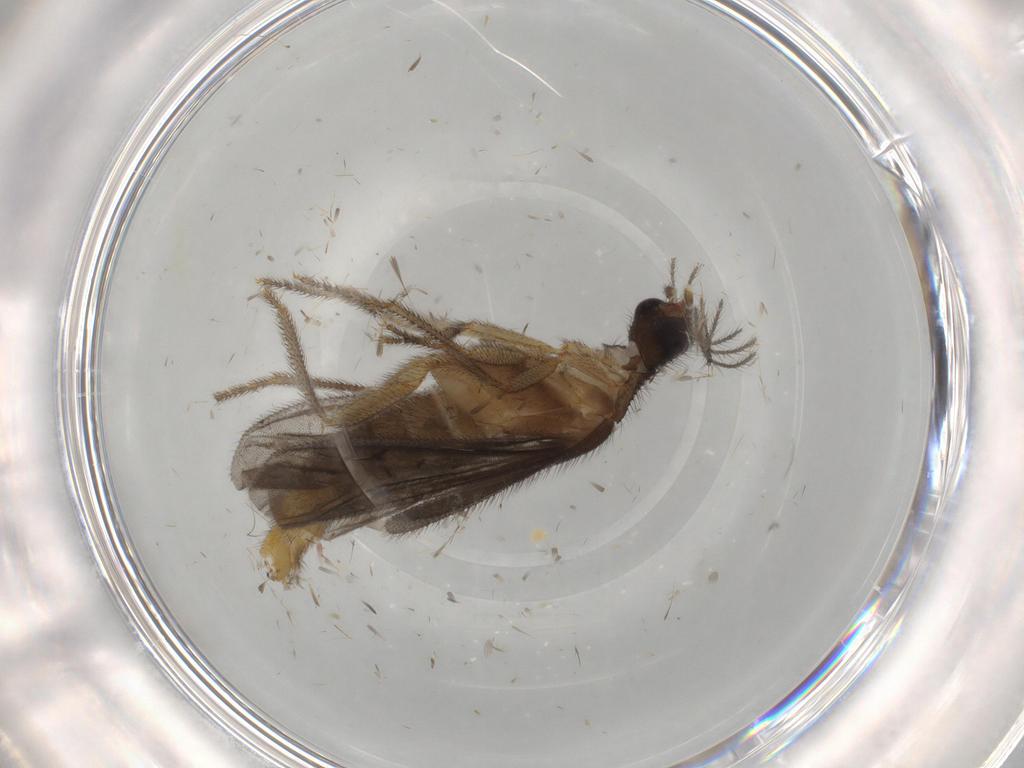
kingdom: Animalia
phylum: Arthropoda
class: Insecta
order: Coleoptera
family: Phengodidae
